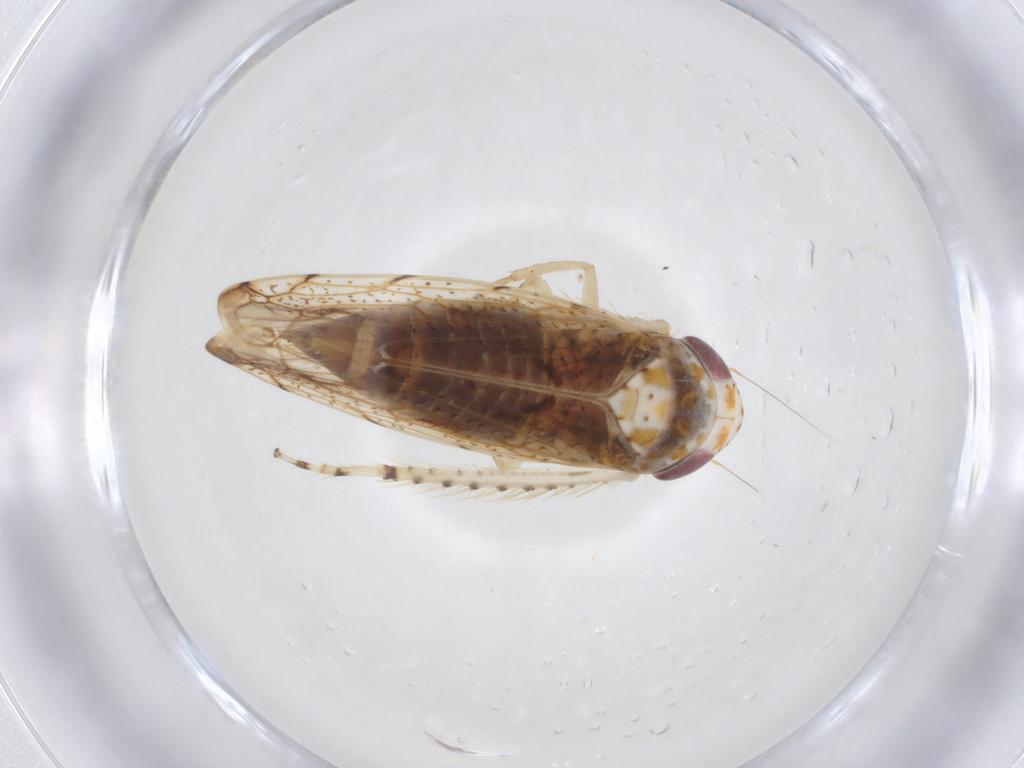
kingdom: Animalia
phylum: Arthropoda
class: Insecta
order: Hemiptera
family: Cicadellidae
